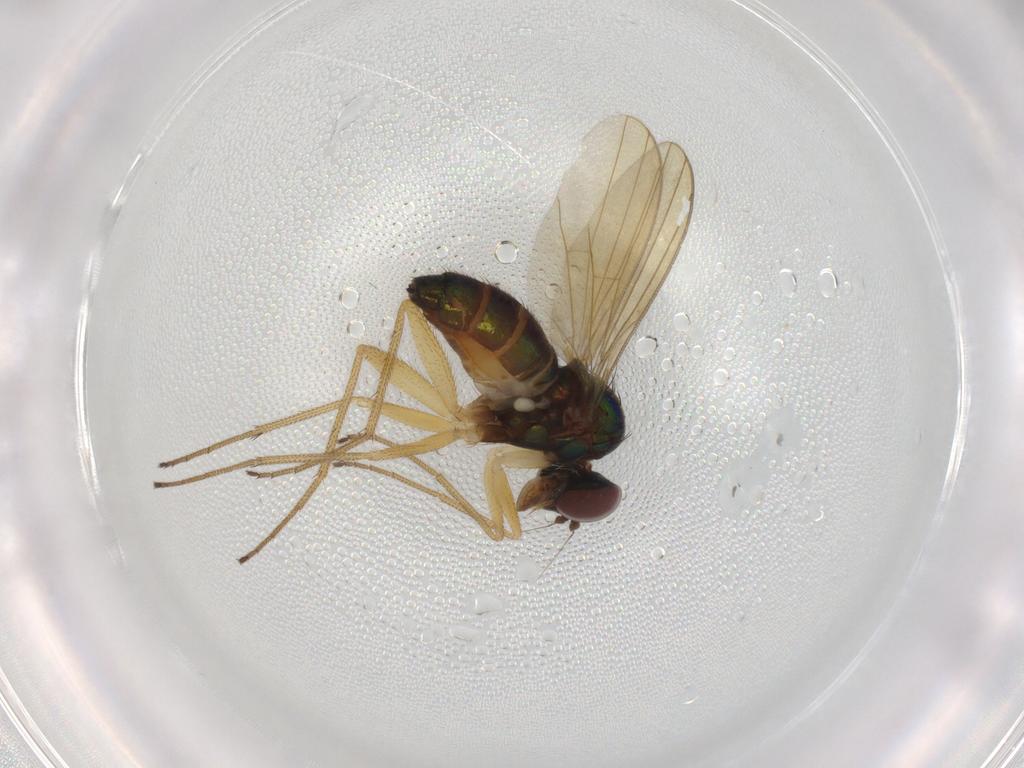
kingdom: Animalia
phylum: Arthropoda
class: Insecta
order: Diptera
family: Dolichopodidae
